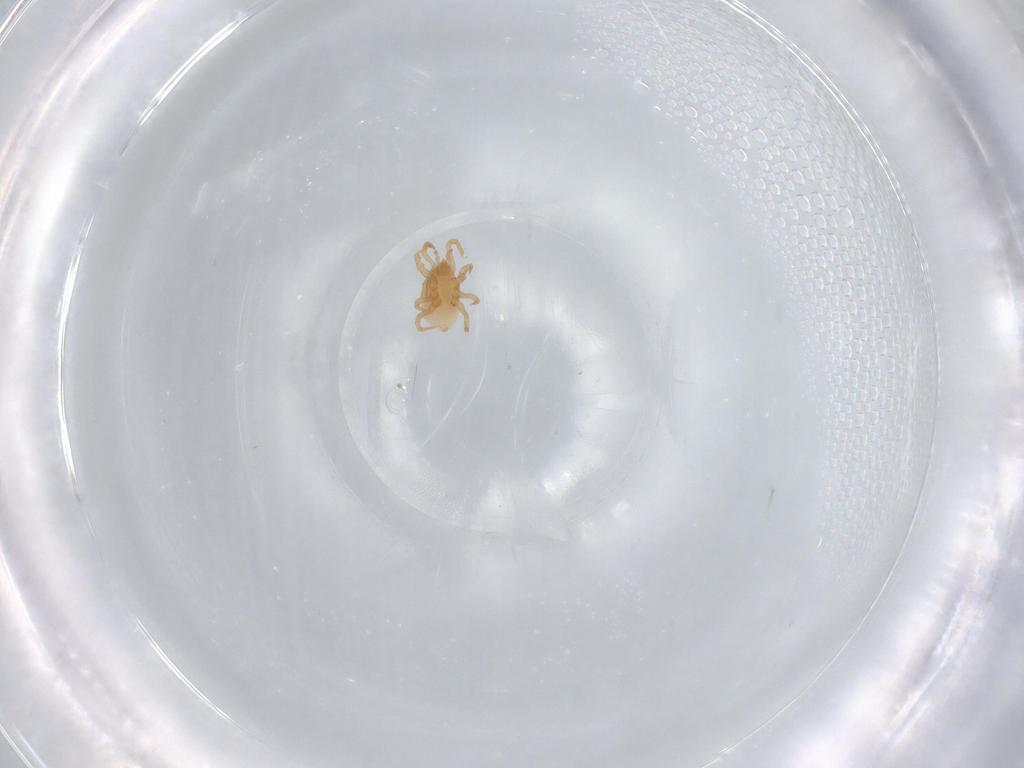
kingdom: Animalia
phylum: Arthropoda
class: Arachnida
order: Mesostigmata
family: Parasitidae
